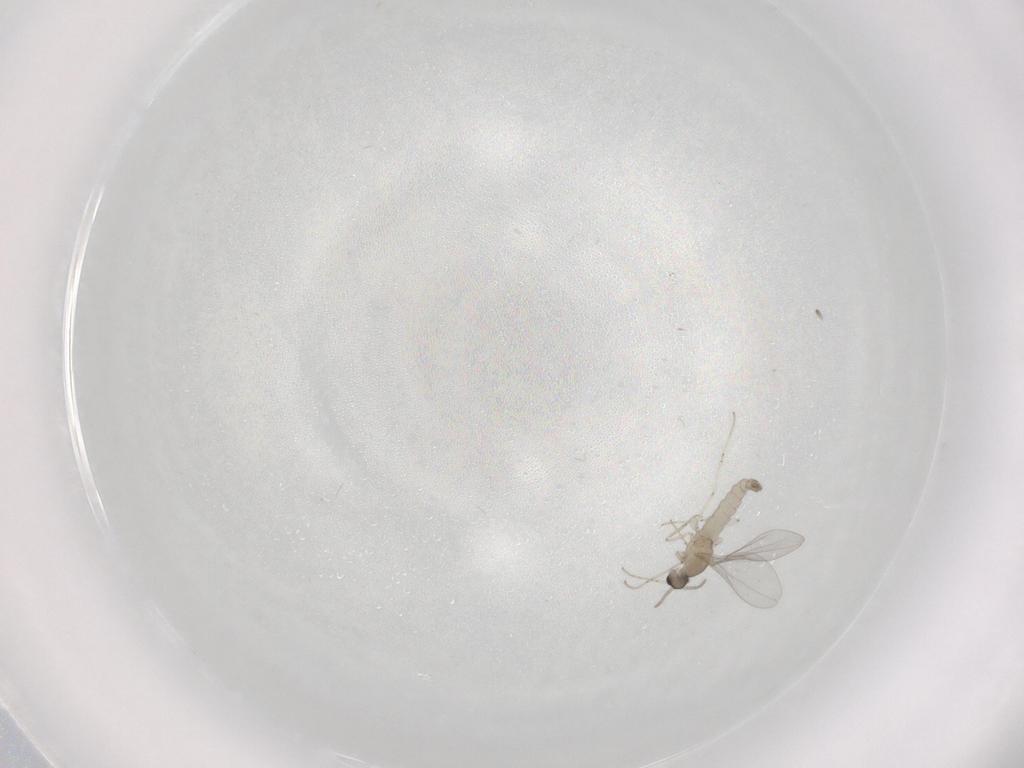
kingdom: Animalia
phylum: Arthropoda
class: Insecta
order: Diptera
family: Cecidomyiidae
